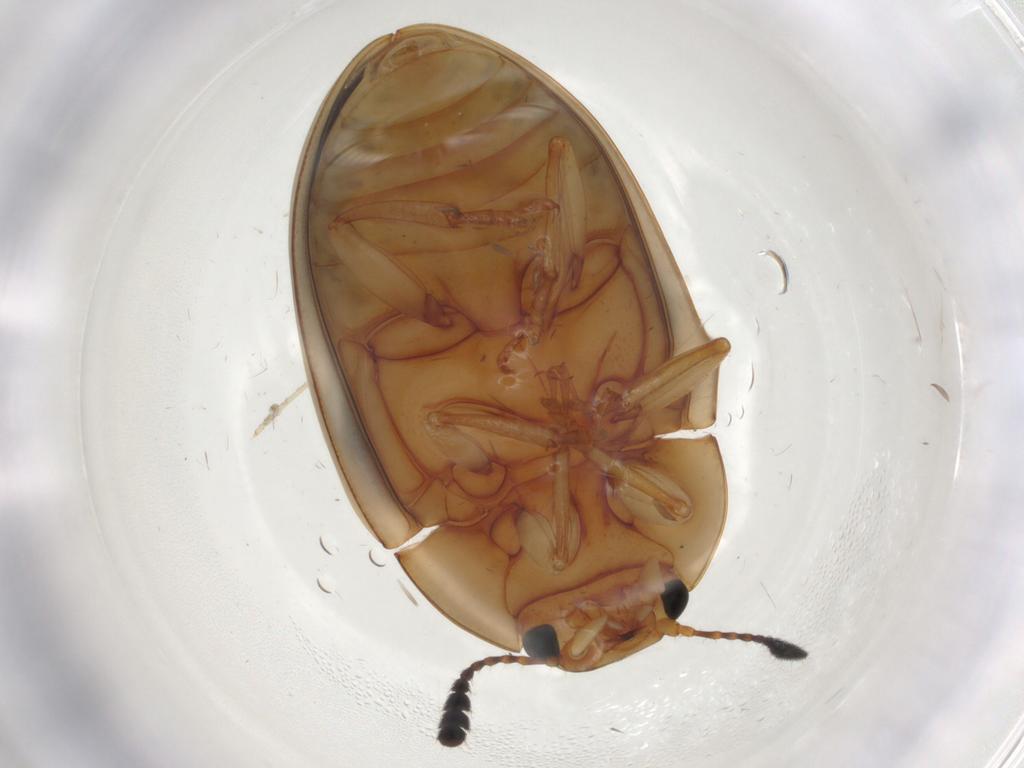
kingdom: Animalia
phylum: Arthropoda
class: Insecta
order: Coleoptera
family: Erotylidae
